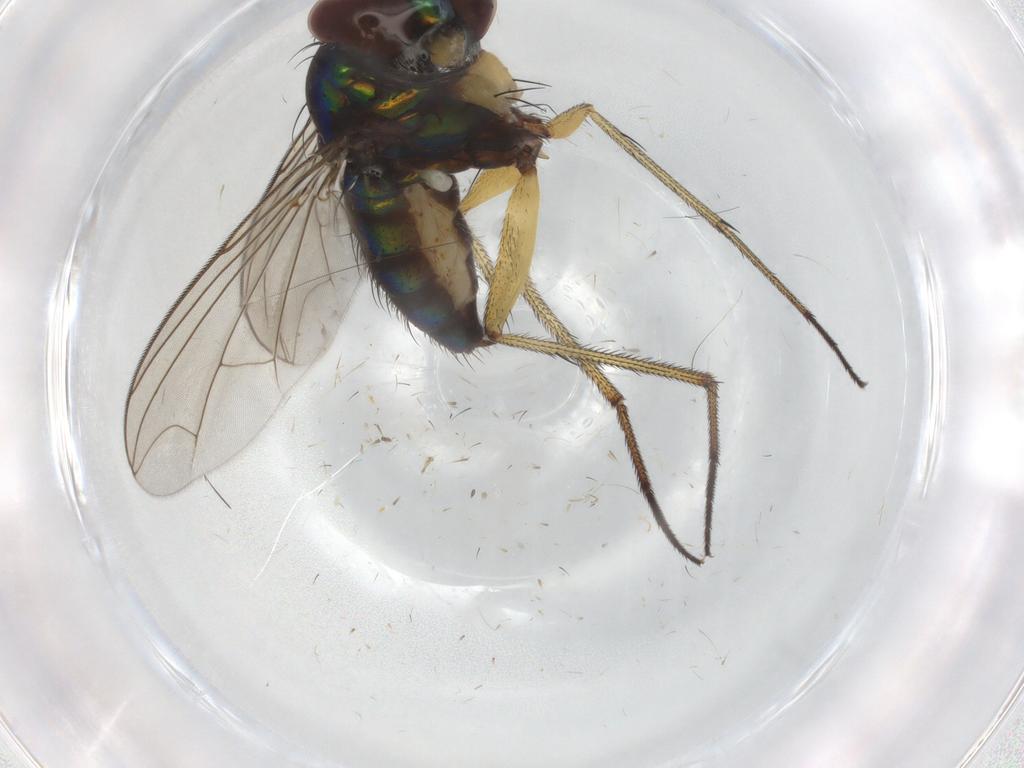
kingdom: Animalia
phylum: Arthropoda
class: Insecta
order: Diptera
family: Dolichopodidae
